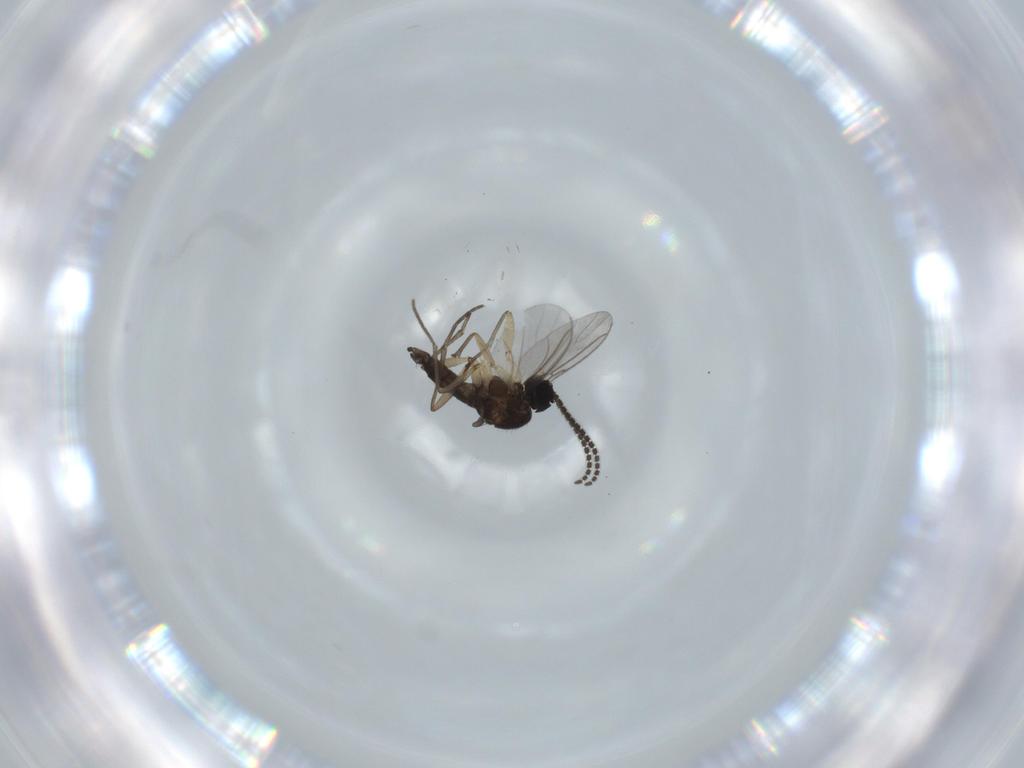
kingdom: Animalia
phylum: Arthropoda
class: Insecta
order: Diptera
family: Sciaridae
